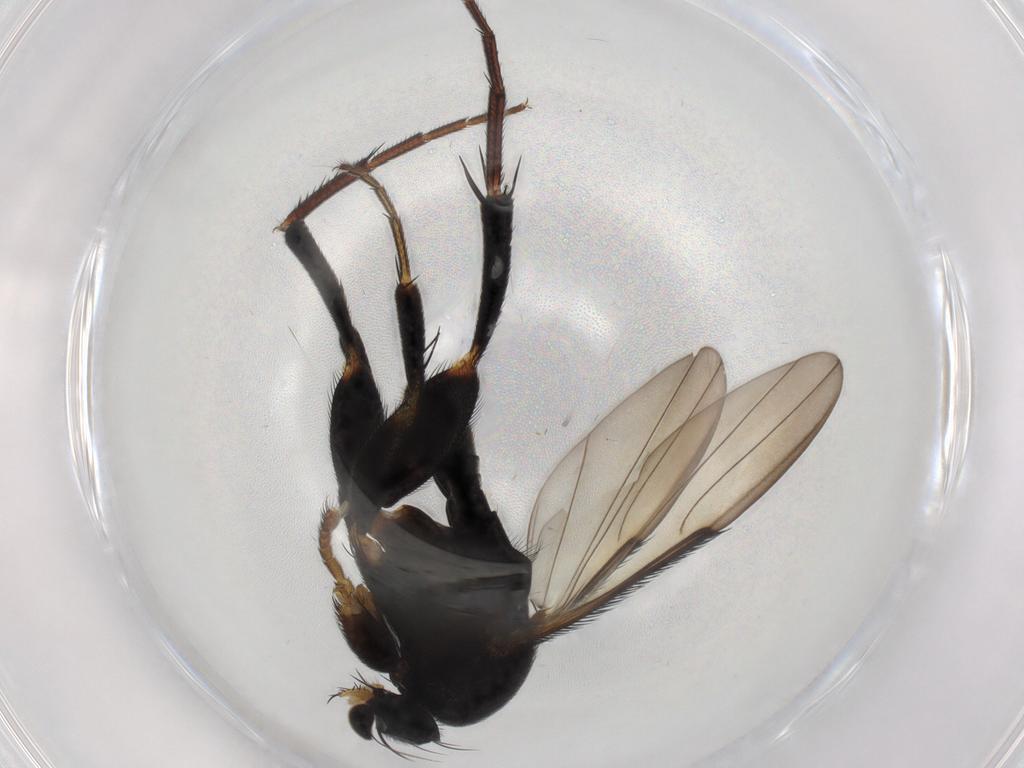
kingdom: Animalia
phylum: Arthropoda
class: Insecta
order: Diptera
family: Phoridae
